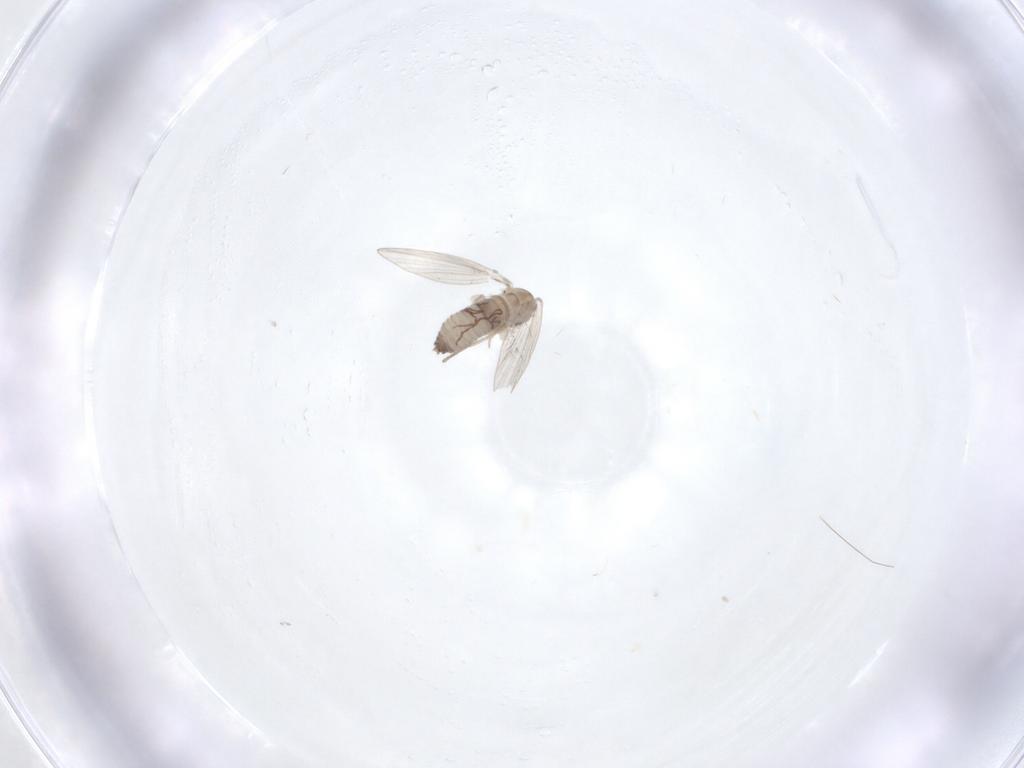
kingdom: Animalia
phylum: Arthropoda
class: Insecta
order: Diptera
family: Psychodidae
